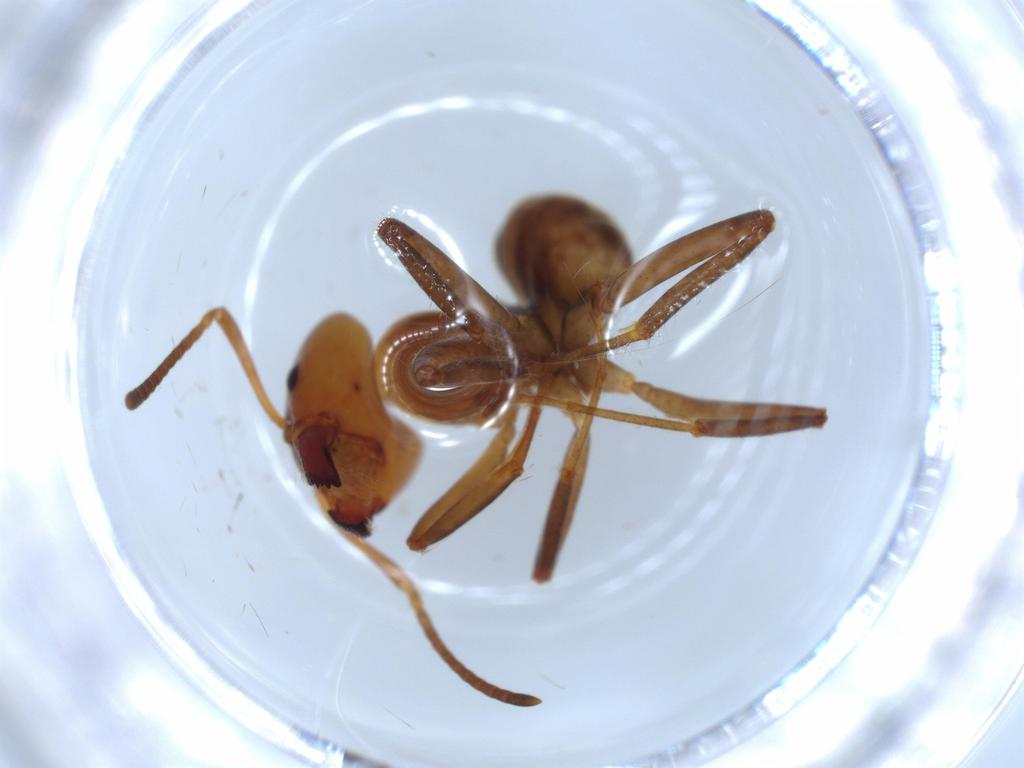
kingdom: Animalia
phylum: Arthropoda
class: Insecta
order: Hymenoptera
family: Formicidae
